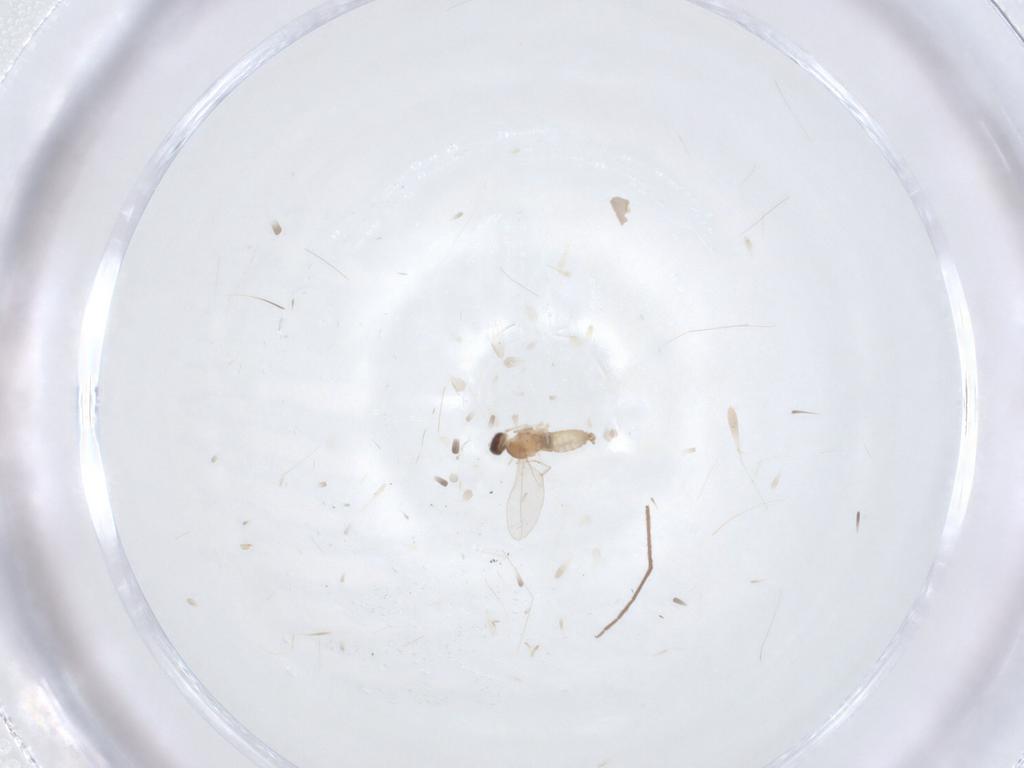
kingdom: Animalia
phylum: Arthropoda
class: Insecta
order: Diptera
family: Cecidomyiidae
